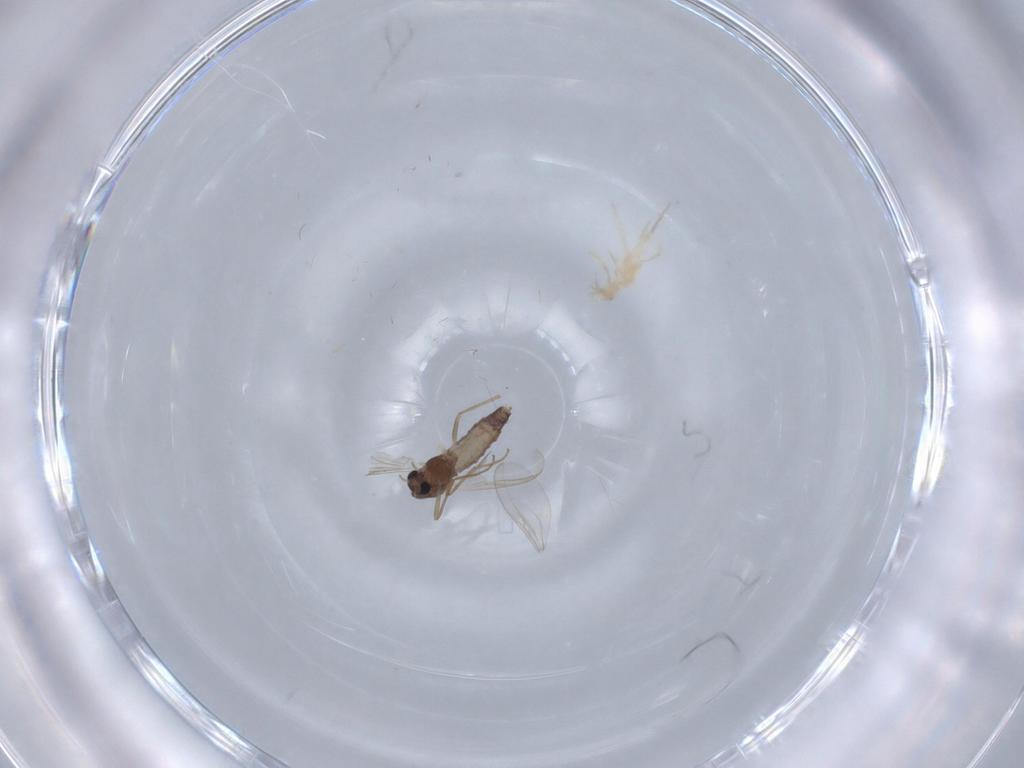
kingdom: Animalia
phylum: Arthropoda
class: Insecta
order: Diptera
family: Chironomidae
